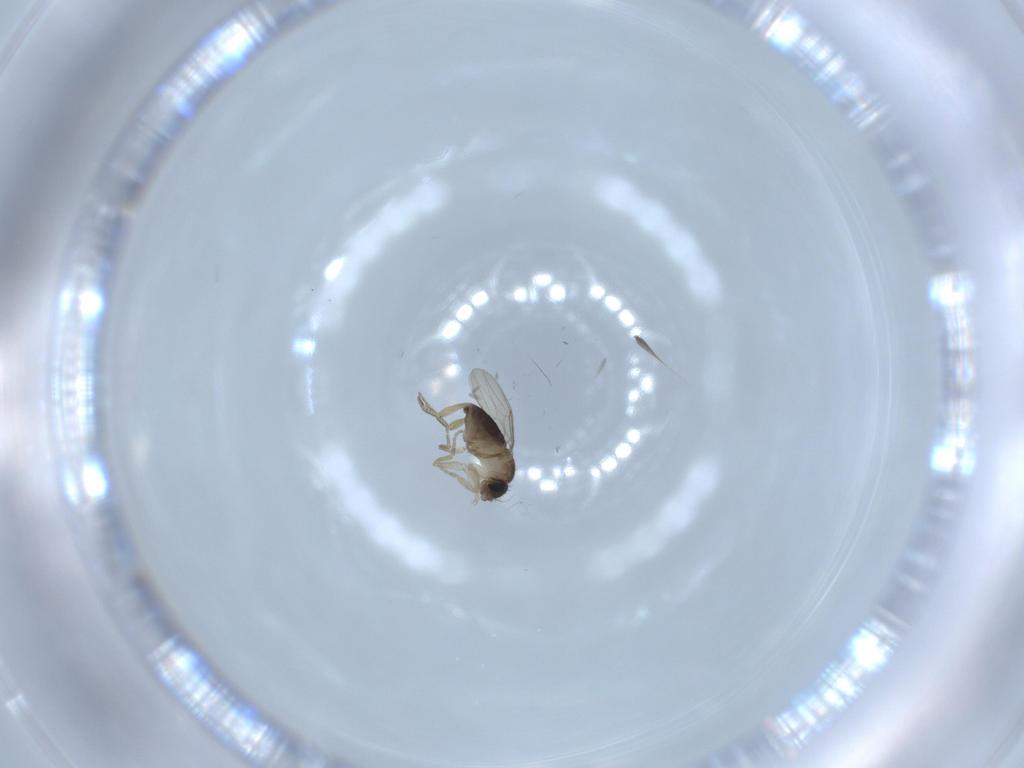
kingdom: Animalia
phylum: Arthropoda
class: Insecta
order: Diptera
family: Phoridae
